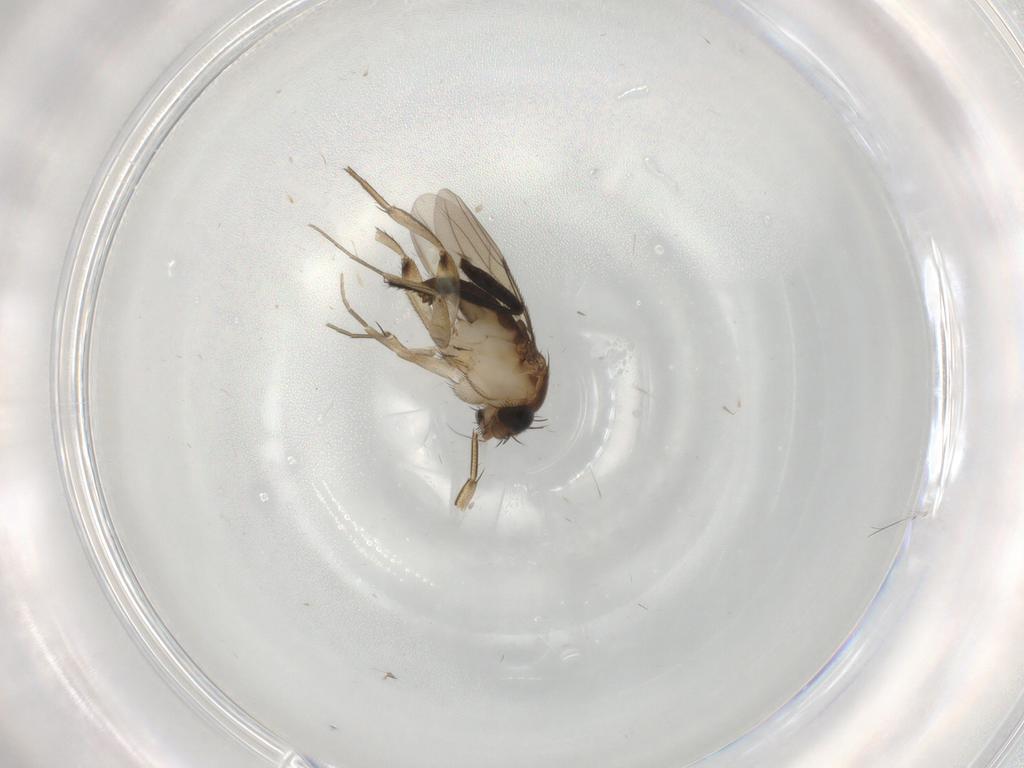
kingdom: Animalia
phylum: Arthropoda
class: Insecta
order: Diptera
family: Phoridae
